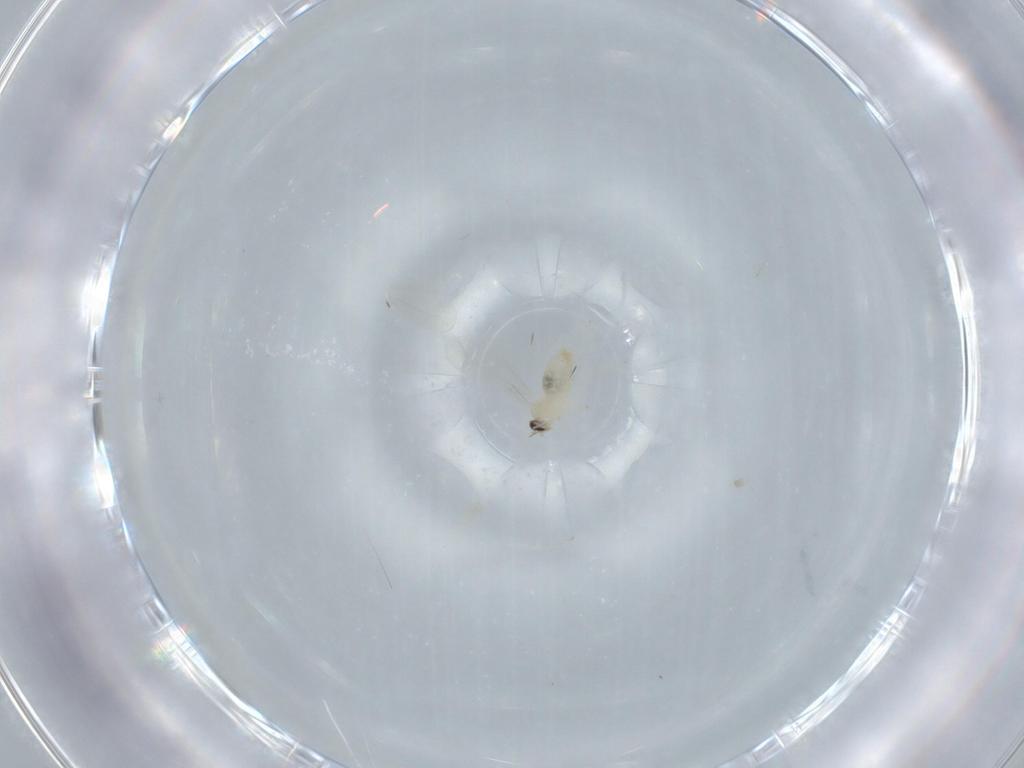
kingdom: Animalia
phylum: Arthropoda
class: Insecta
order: Diptera
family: Cecidomyiidae
